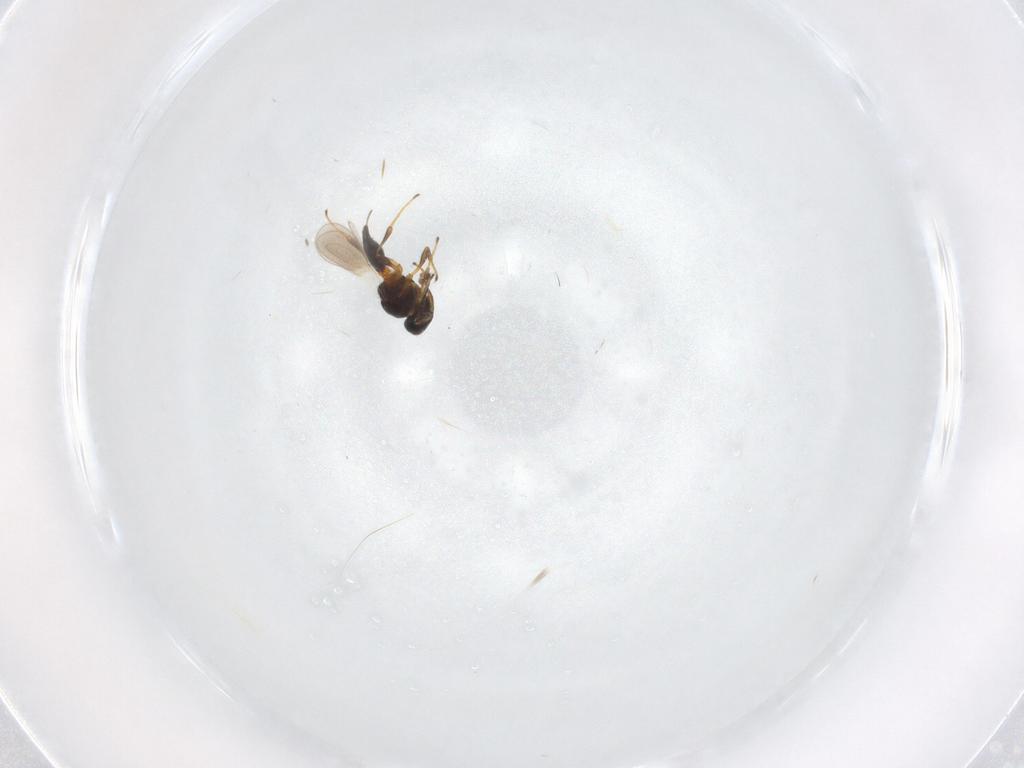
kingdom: Animalia
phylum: Arthropoda
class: Insecta
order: Hymenoptera
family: Platygastridae
